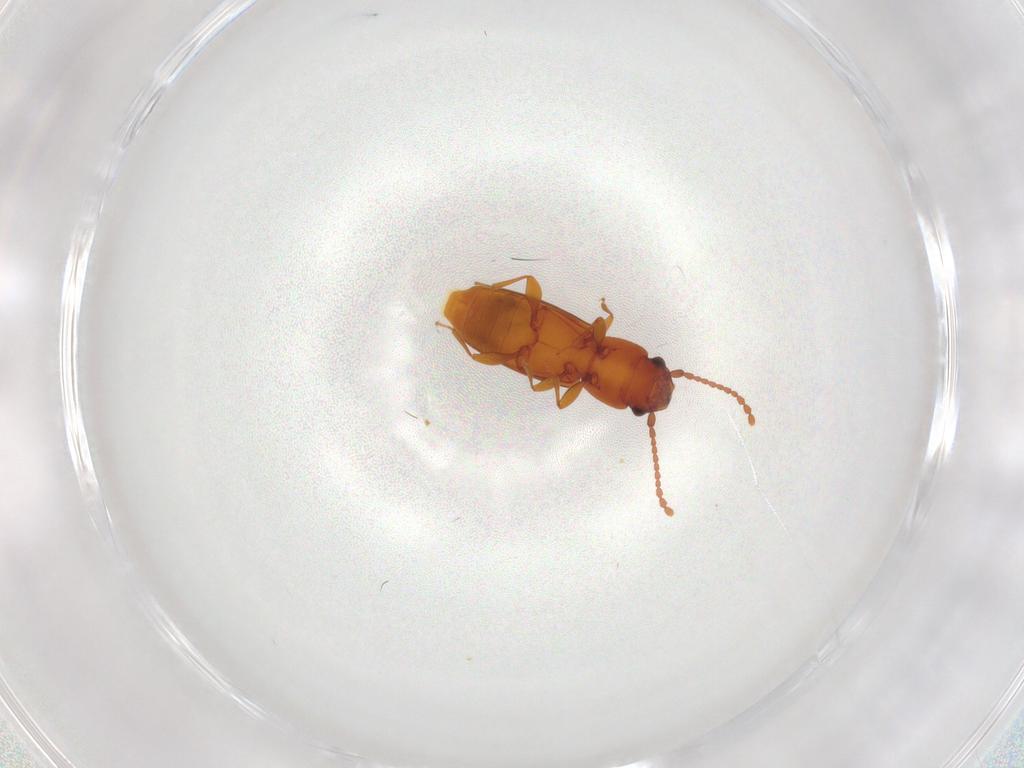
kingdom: Animalia
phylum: Arthropoda
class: Insecta
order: Coleoptera
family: Laemophloeidae
